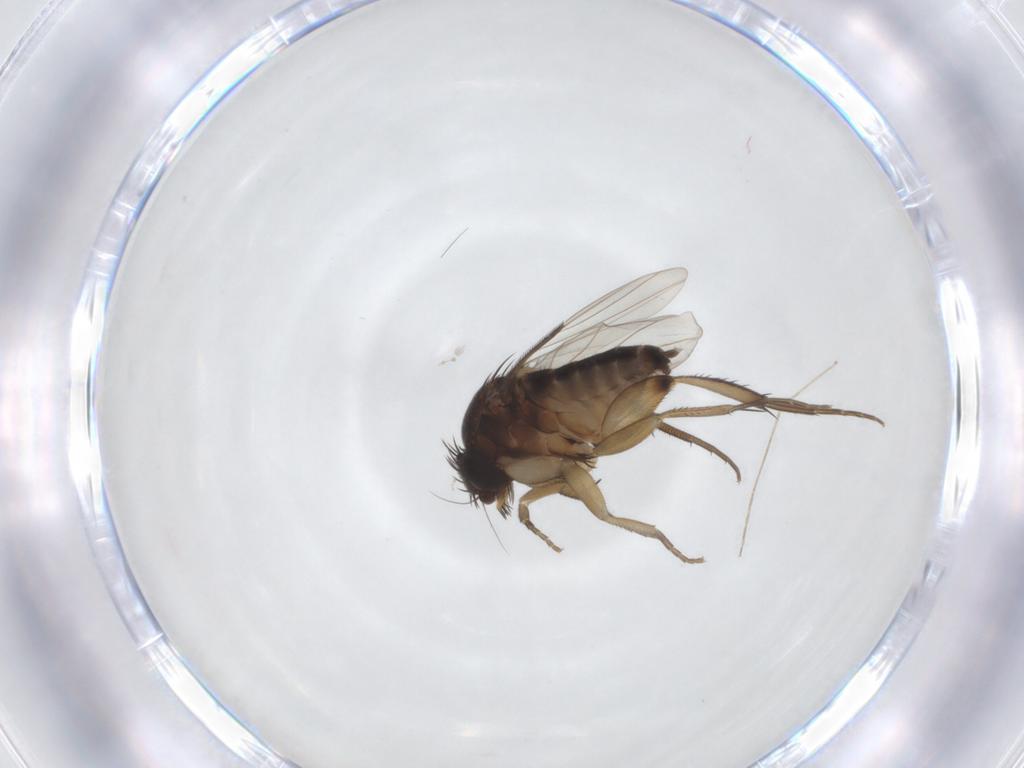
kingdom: Animalia
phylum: Arthropoda
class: Insecta
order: Diptera
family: Phoridae
